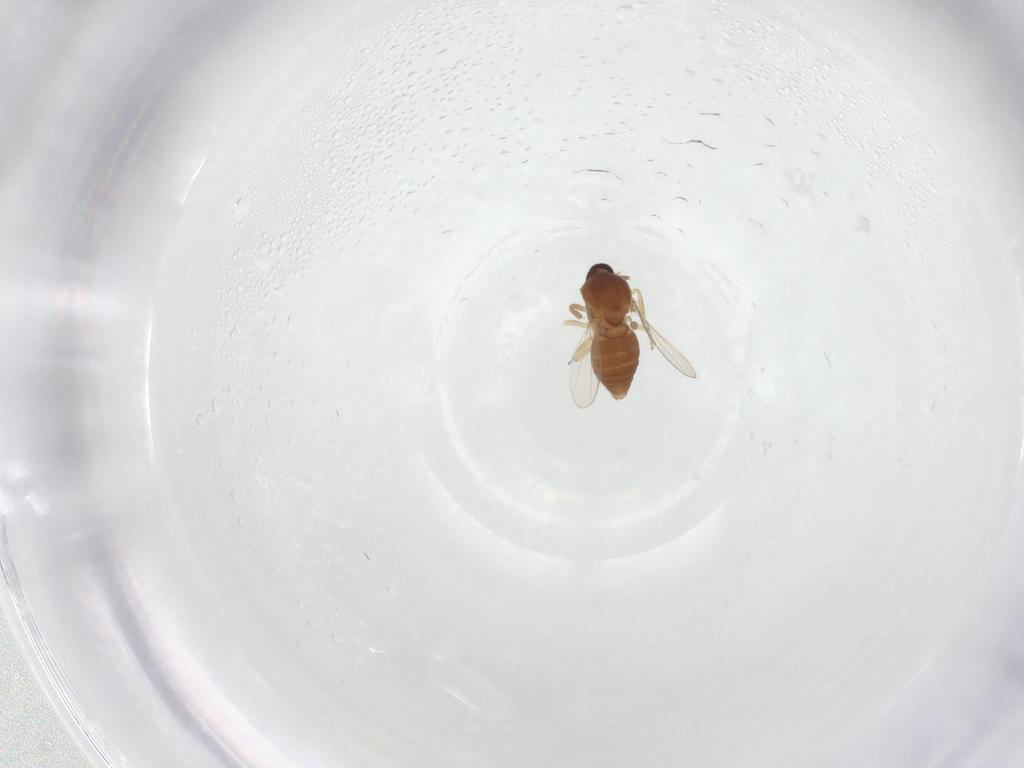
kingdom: Animalia
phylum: Arthropoda
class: Insecta
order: Diptera
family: Ceratopogonidae
